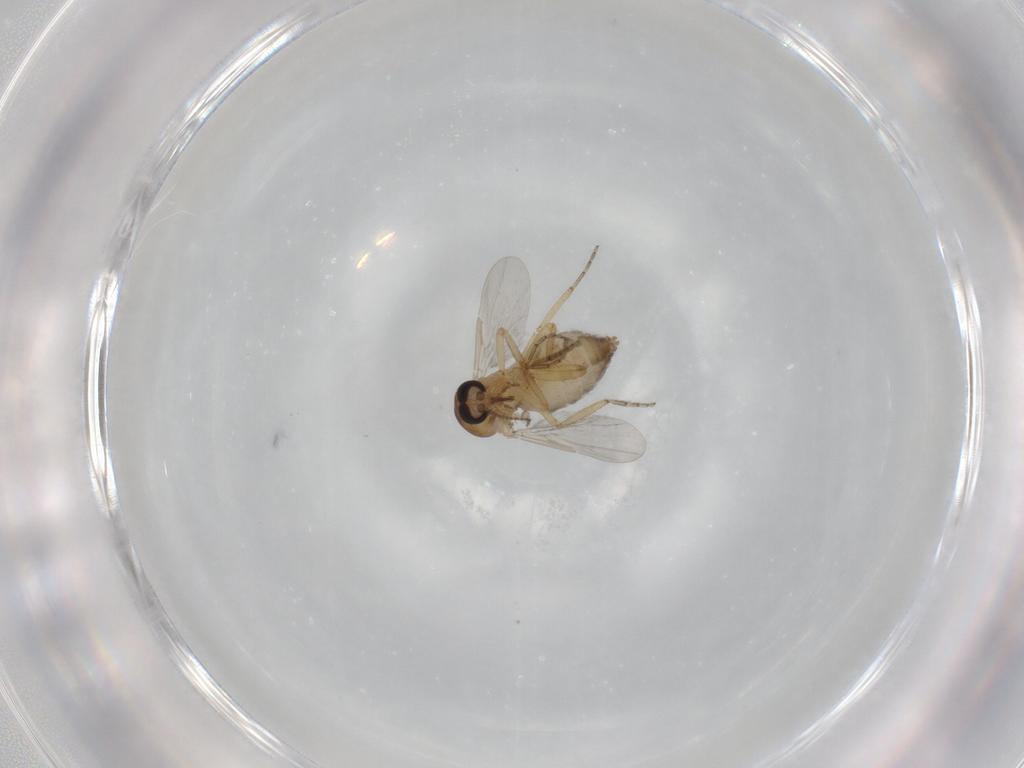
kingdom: Animalia
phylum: Arthropoda
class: Insecta
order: Diptera
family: Ceratopogonidae
